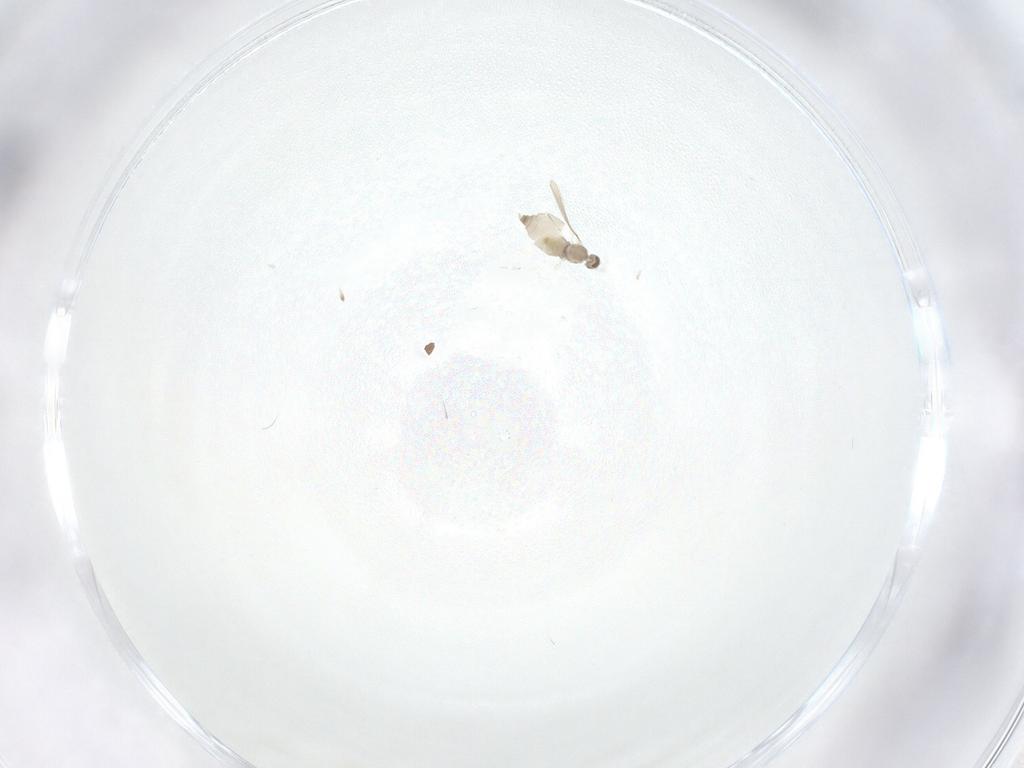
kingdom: Animalia
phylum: Arthropoda
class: Insecta
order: Diptera
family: Cecidomyiidae
